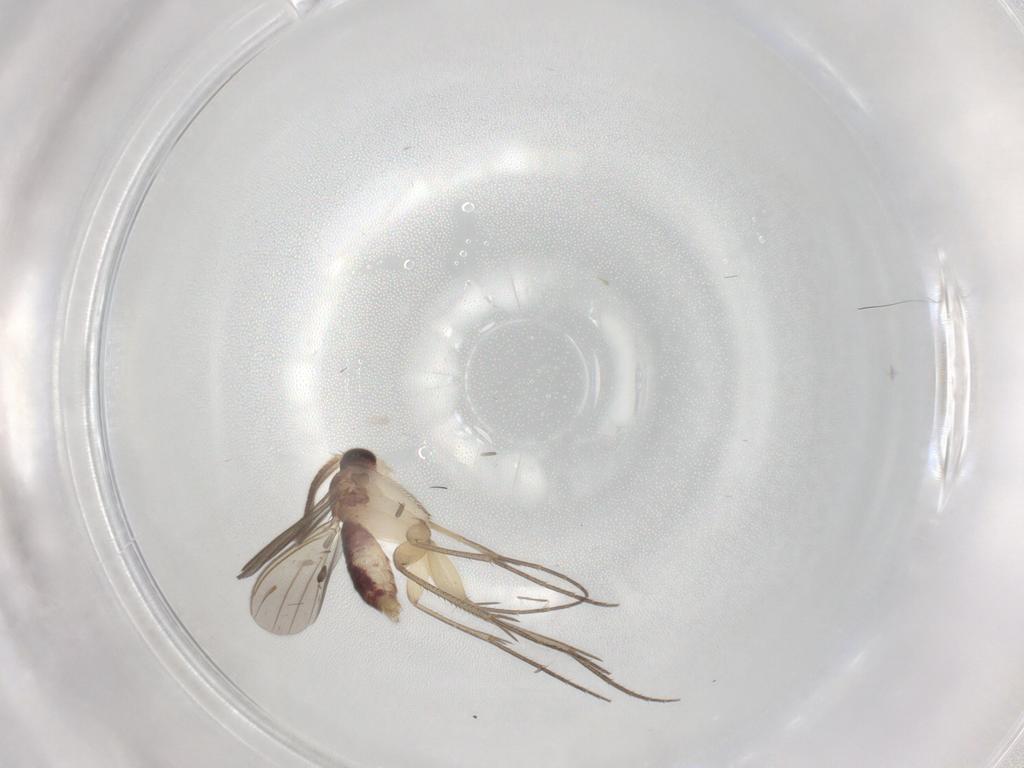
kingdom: Animalia
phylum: Arthropoda
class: Insecta
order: Diptera
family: Mycetophilidae
